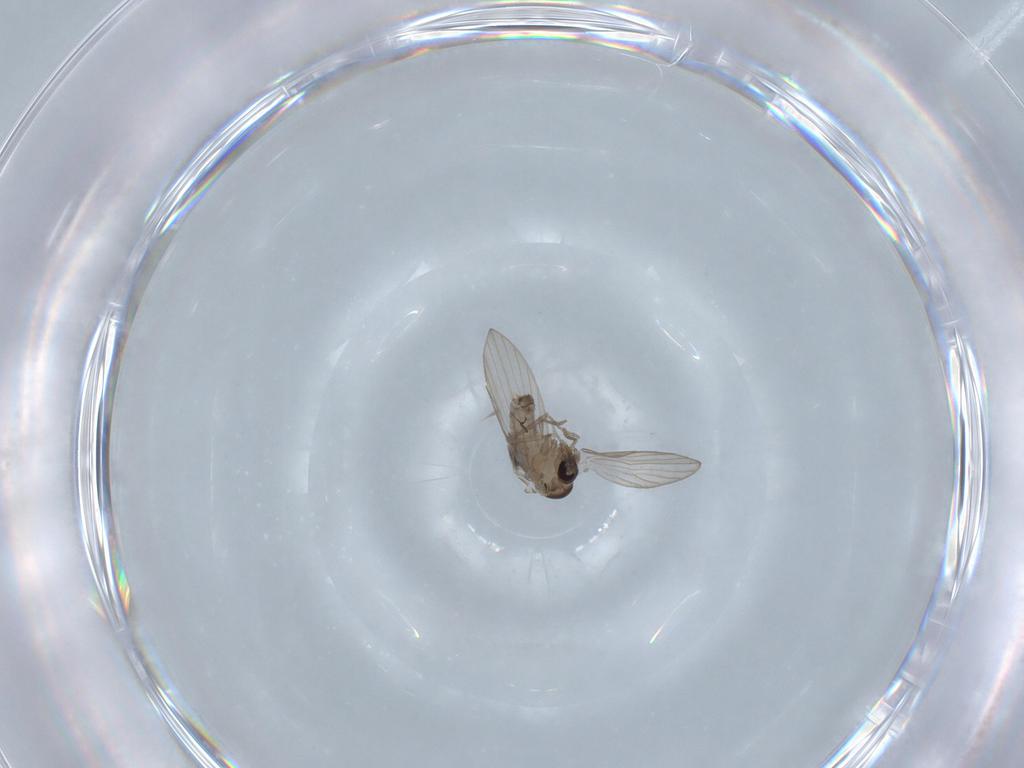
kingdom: Animalia
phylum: Arthropoda
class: Insecta
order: Diptera
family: Psychodidae
